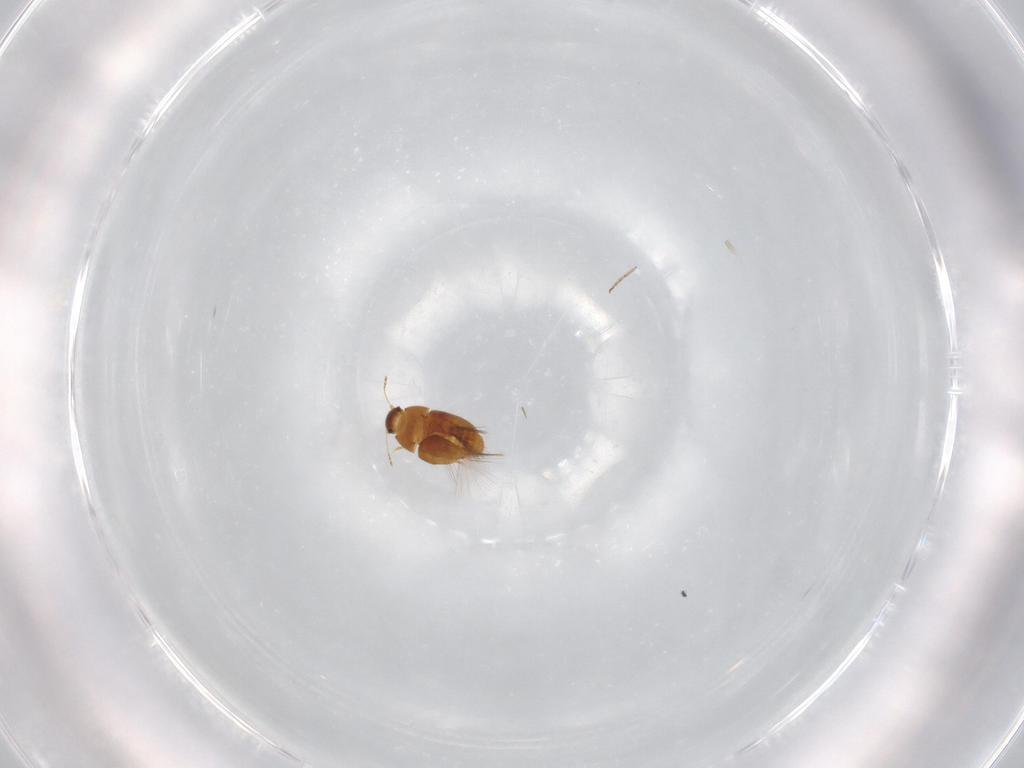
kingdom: Animalia
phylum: Arthropoda
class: Insecta
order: Coleoptera
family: Ptiliidae
